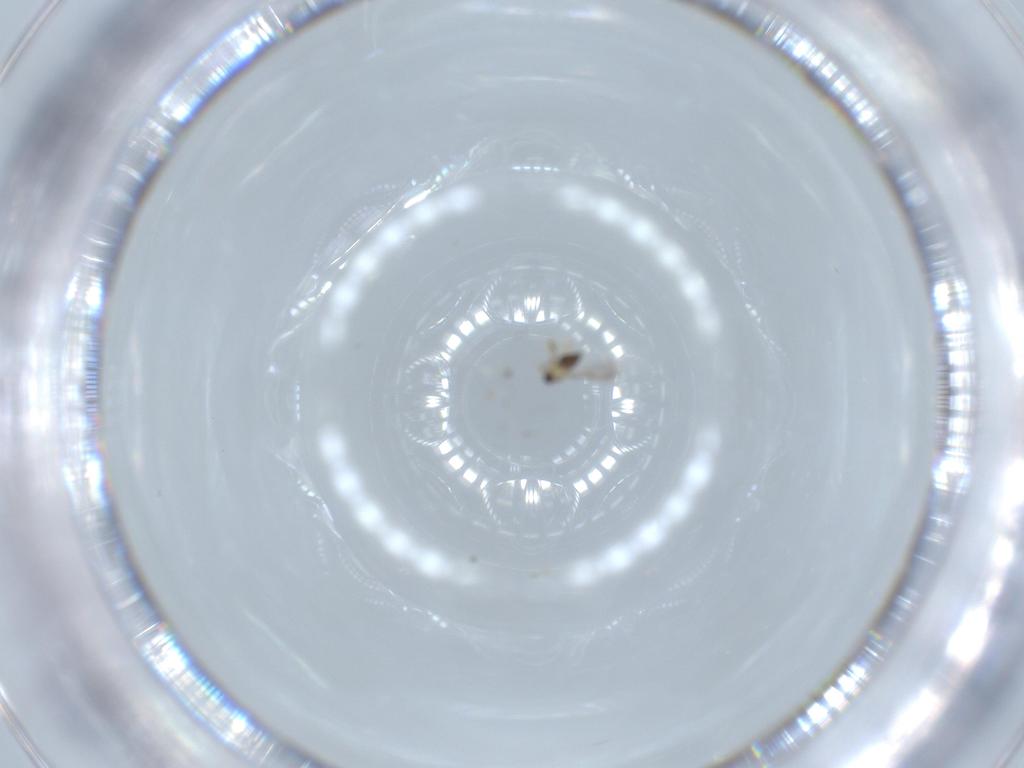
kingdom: Animalia
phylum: Arthropoda
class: Insecta
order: Hymenoptera
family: Mymaridae
